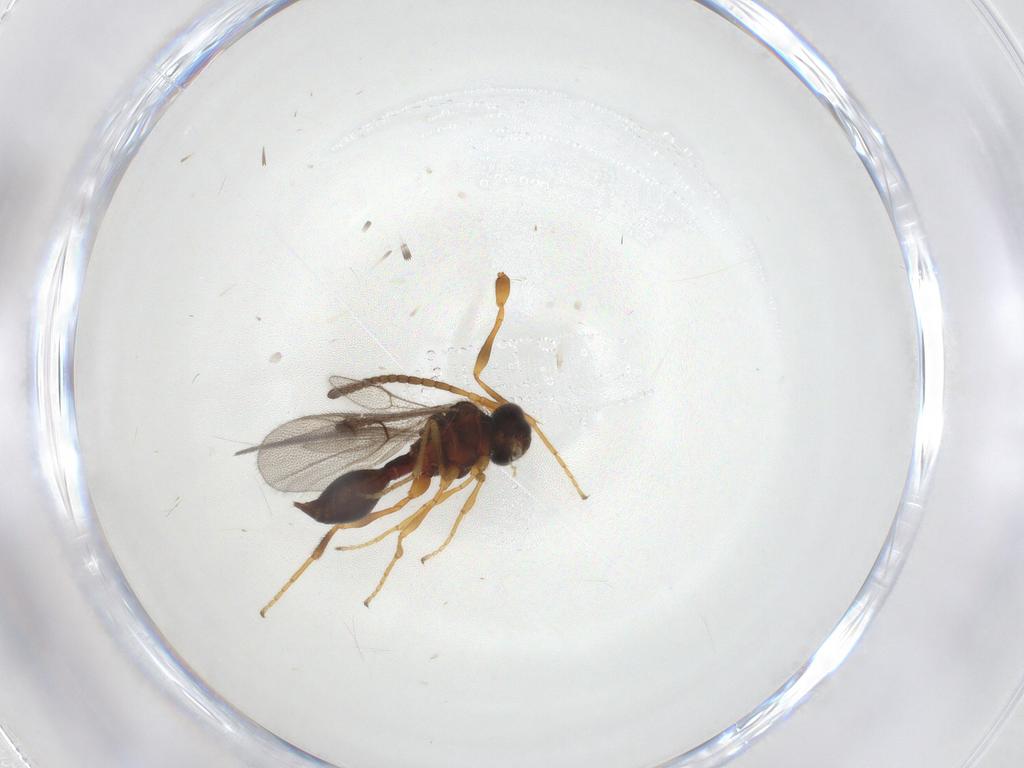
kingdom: Animalia
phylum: Arthropoda
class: Insecta
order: Hymenoptera
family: Diapriidae
